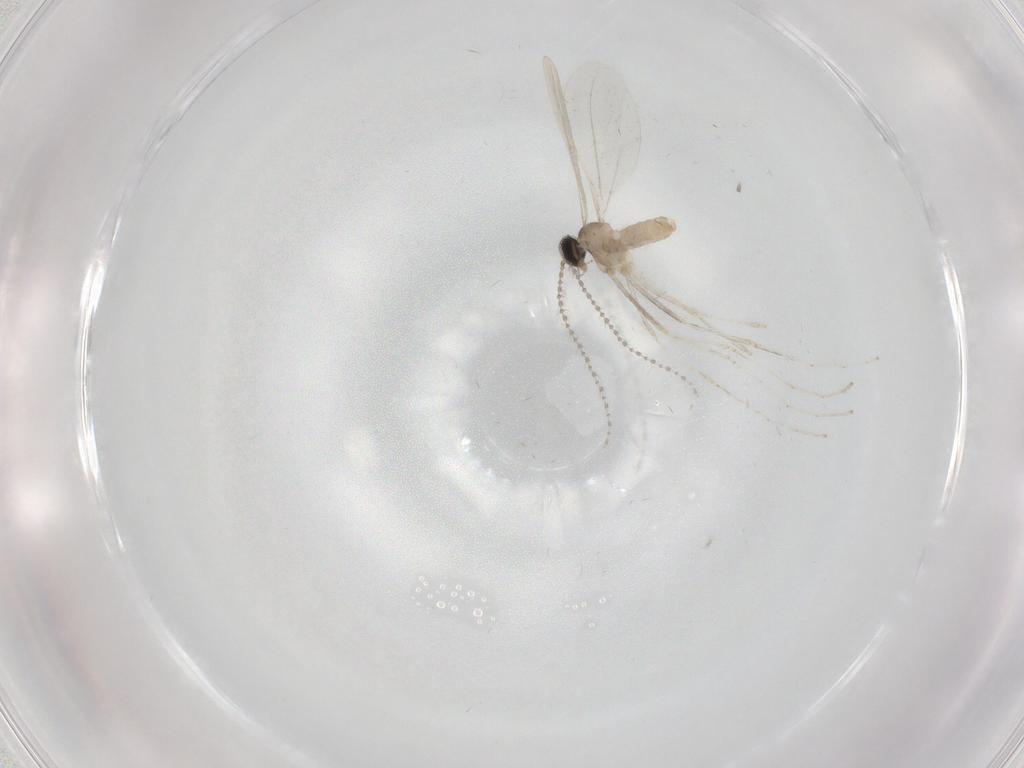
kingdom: Animalia
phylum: Arthropoda
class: Insecta
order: Diptera
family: Cecidomyiidae
